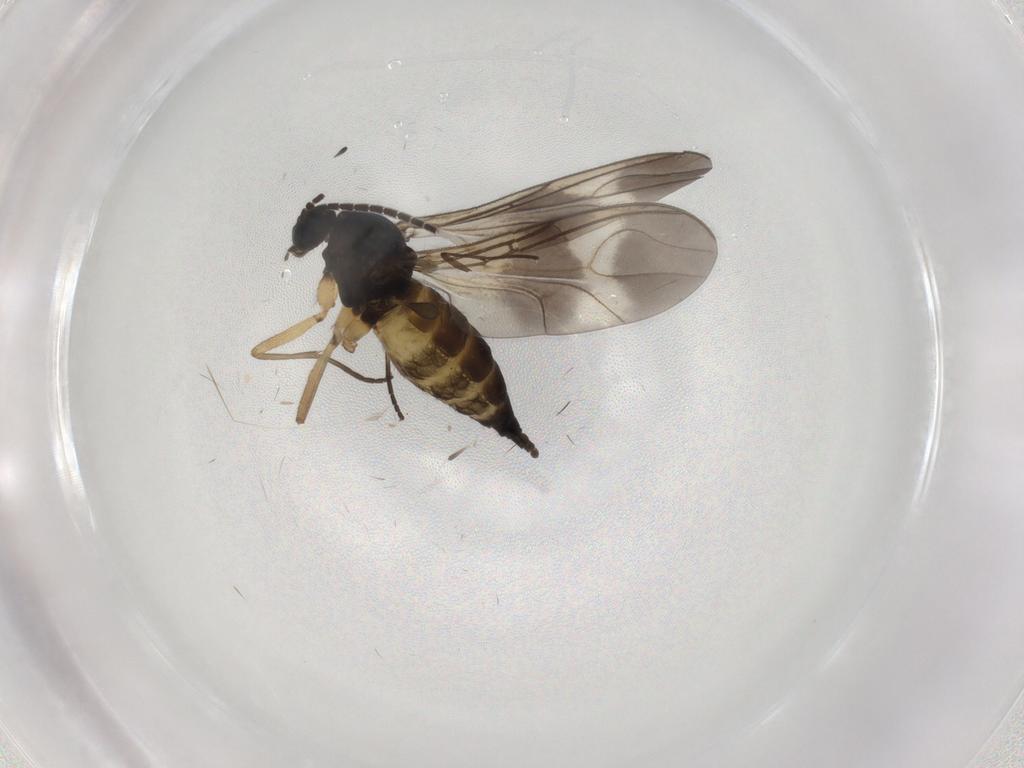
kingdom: Animalia
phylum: Arthropoda
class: Insecta
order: Diptera
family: Sciaridae
